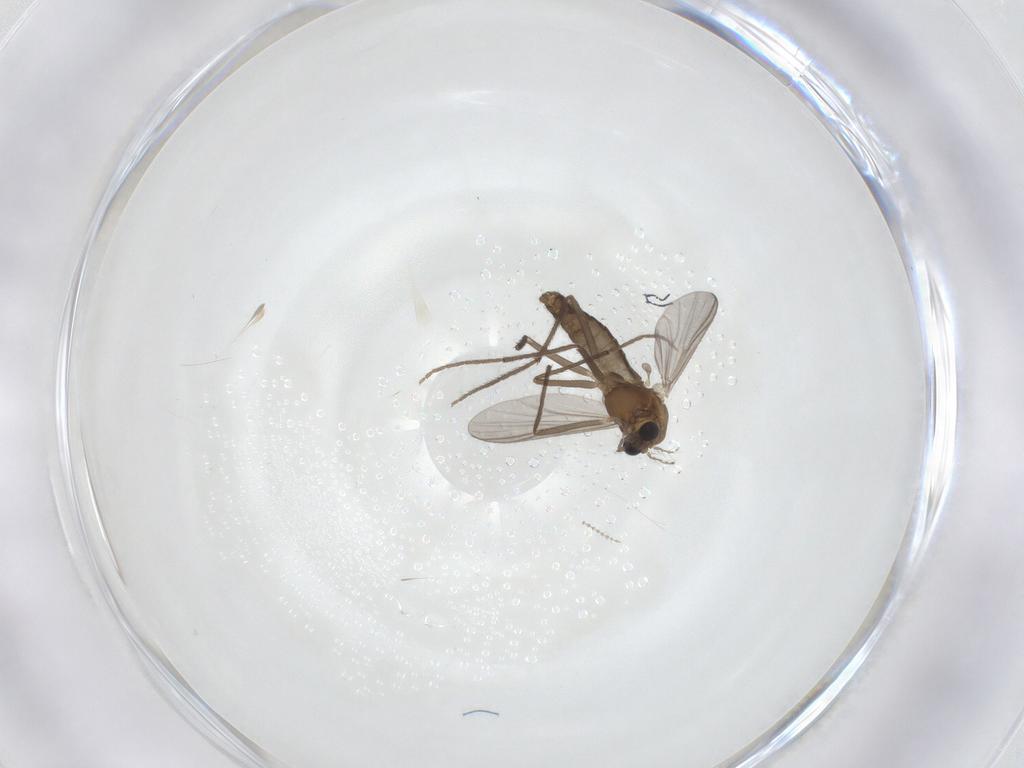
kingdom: Animalia
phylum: Arthropoda
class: Insecta
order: Diptera
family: Chironomidae
